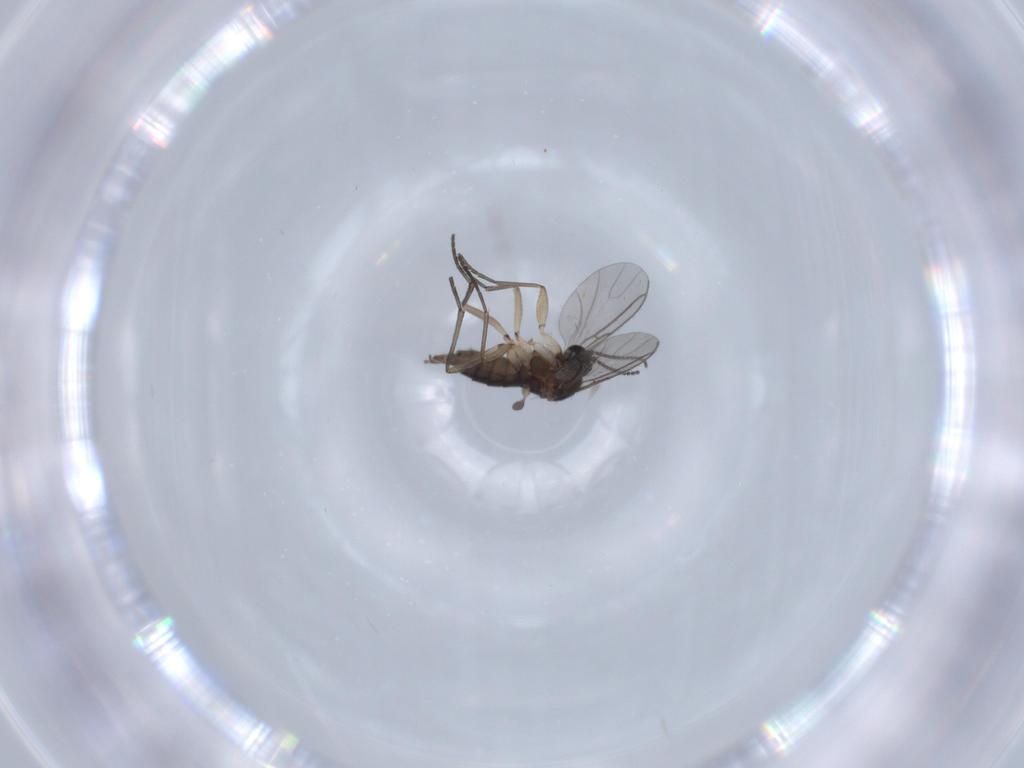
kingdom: Animalia
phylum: Arthropoda
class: Insecta
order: Diptera
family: Sciaridae
